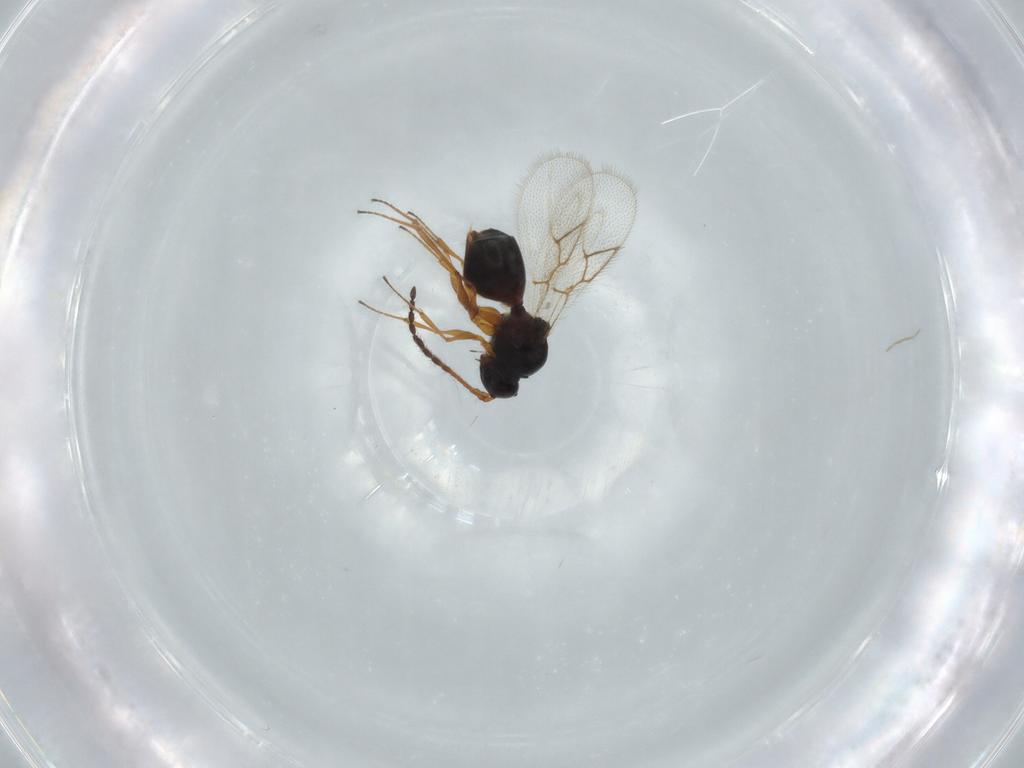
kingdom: Animalia
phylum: Arthropoda
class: Insecta
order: Hymenoptera
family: Figitidae
